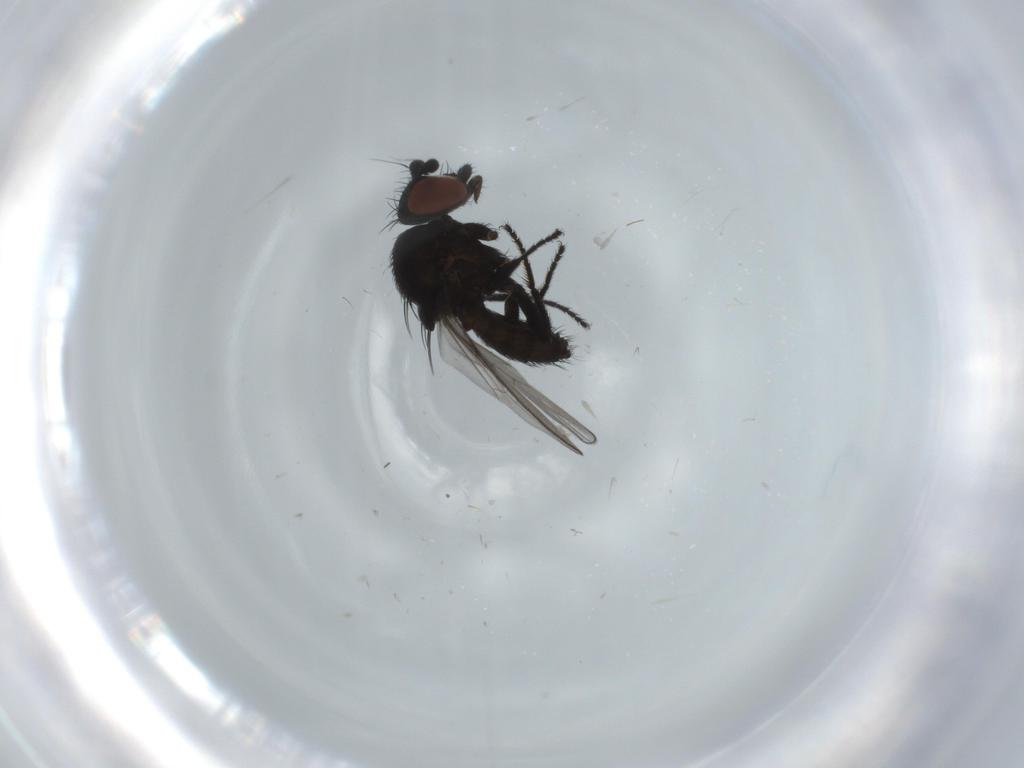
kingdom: Animalia
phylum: Arthropoda
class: Insecta
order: Diptera
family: Milichiidae
